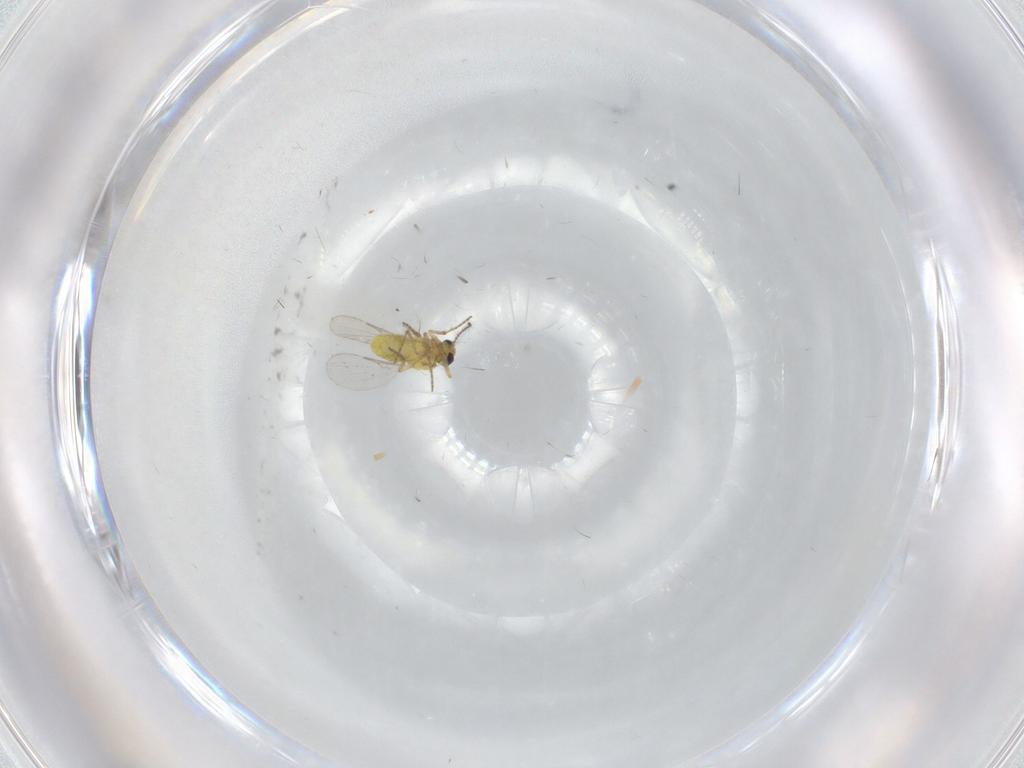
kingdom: Animalia
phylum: Arthropoda
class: Insecta
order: Diptera
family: Ceratopogonidae
